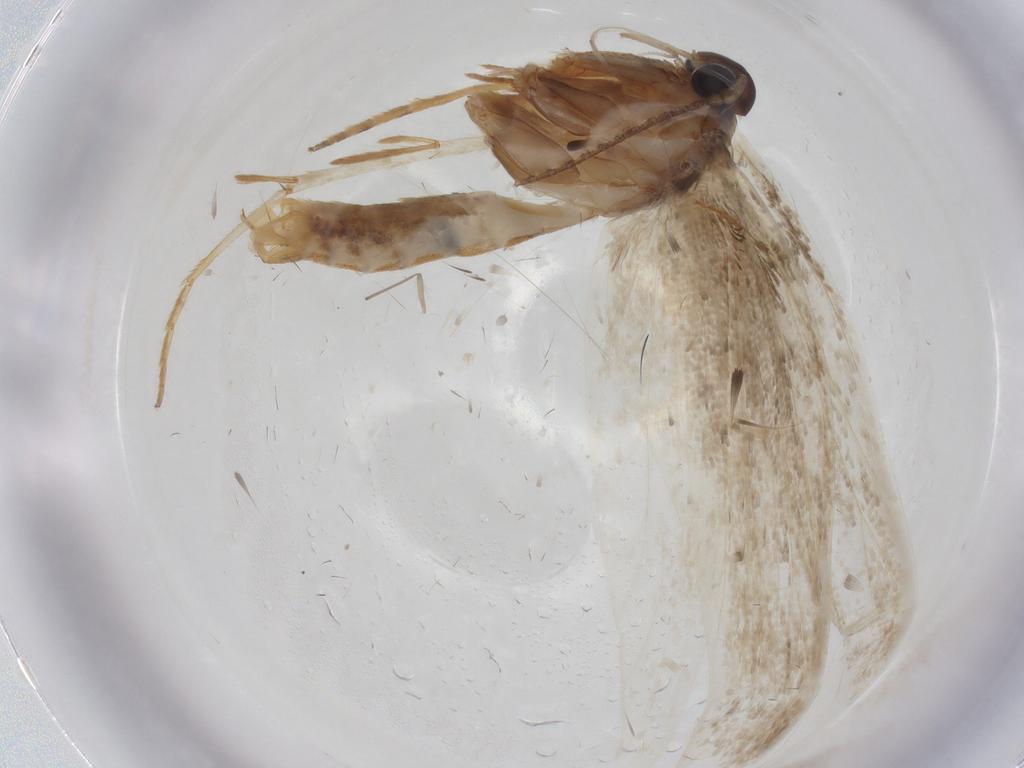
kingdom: Animalia
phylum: Arthropoda
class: Insecta
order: Lepidoptera
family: Erebidae
